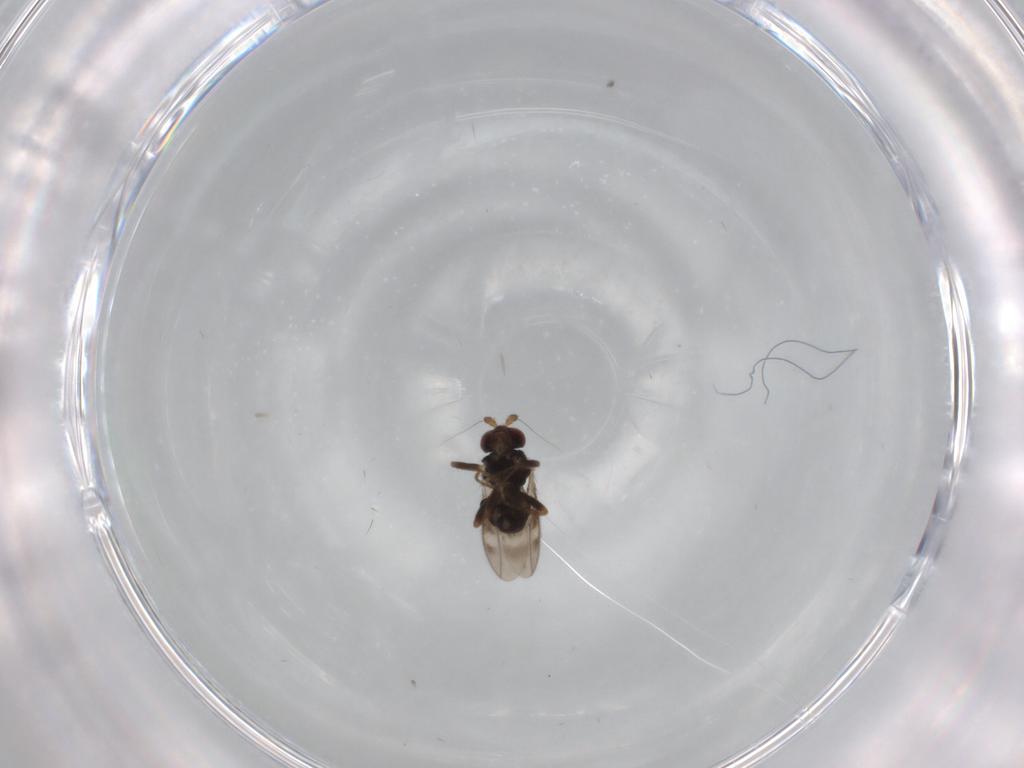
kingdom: Animalia
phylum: Arthropoda
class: Insecta
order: Diptera
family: Sphaeroceridae
